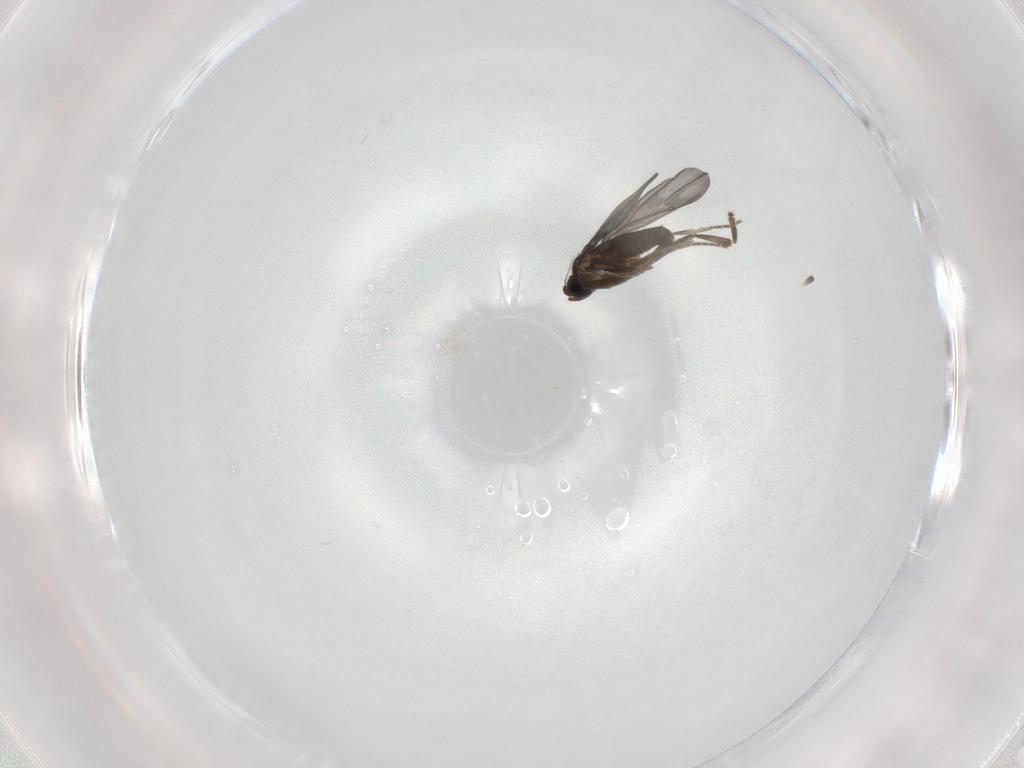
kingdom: Animalia
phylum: Arthropoda
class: Insecta
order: Diptera
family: Phoridae
